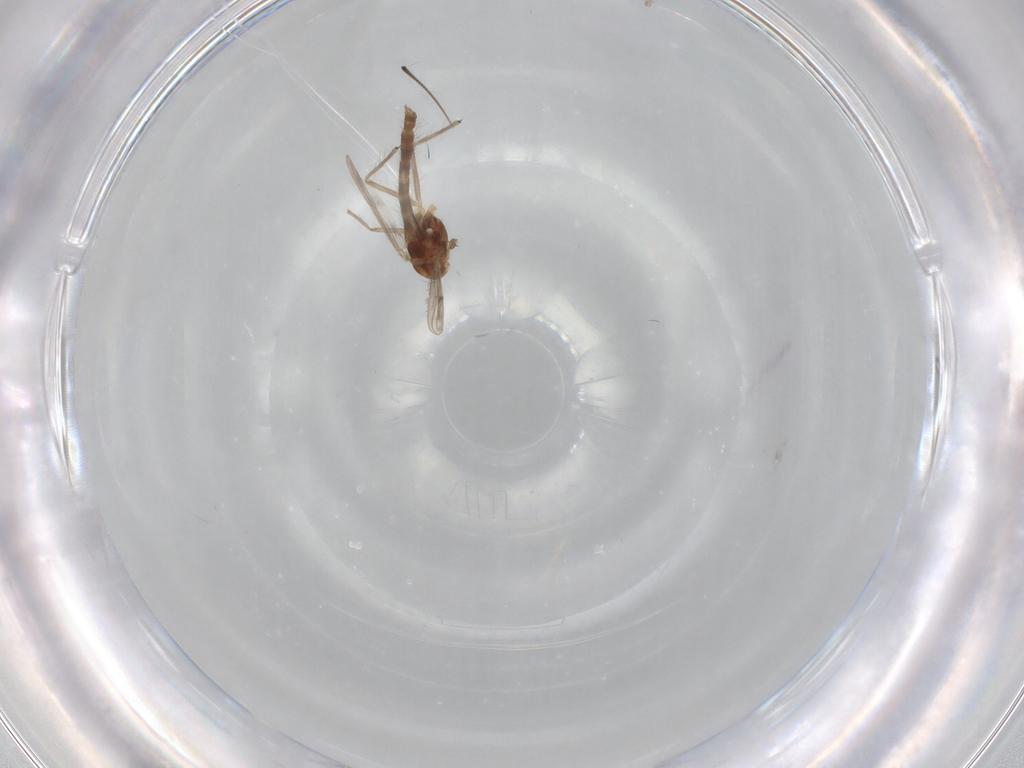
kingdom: Animalia
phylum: Arthropoda
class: Insecta
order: Diptera
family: Chironomidae
